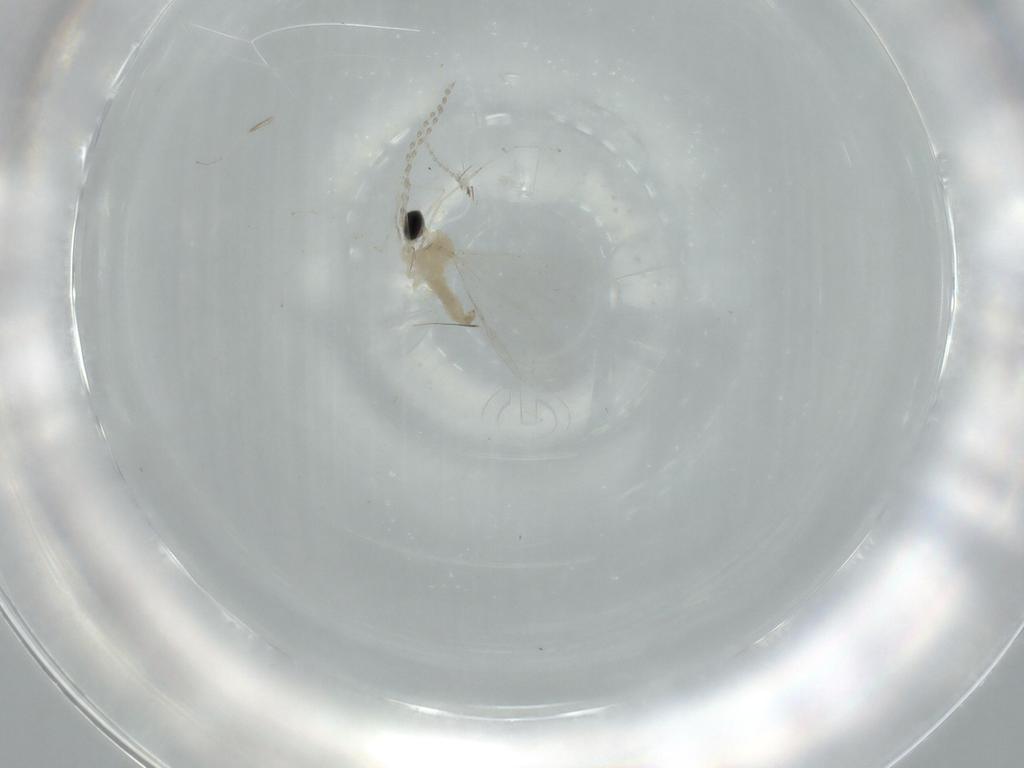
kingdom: Animalia
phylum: Arthropoda
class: Insecta
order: Diptera
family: Cecidomyiidae
